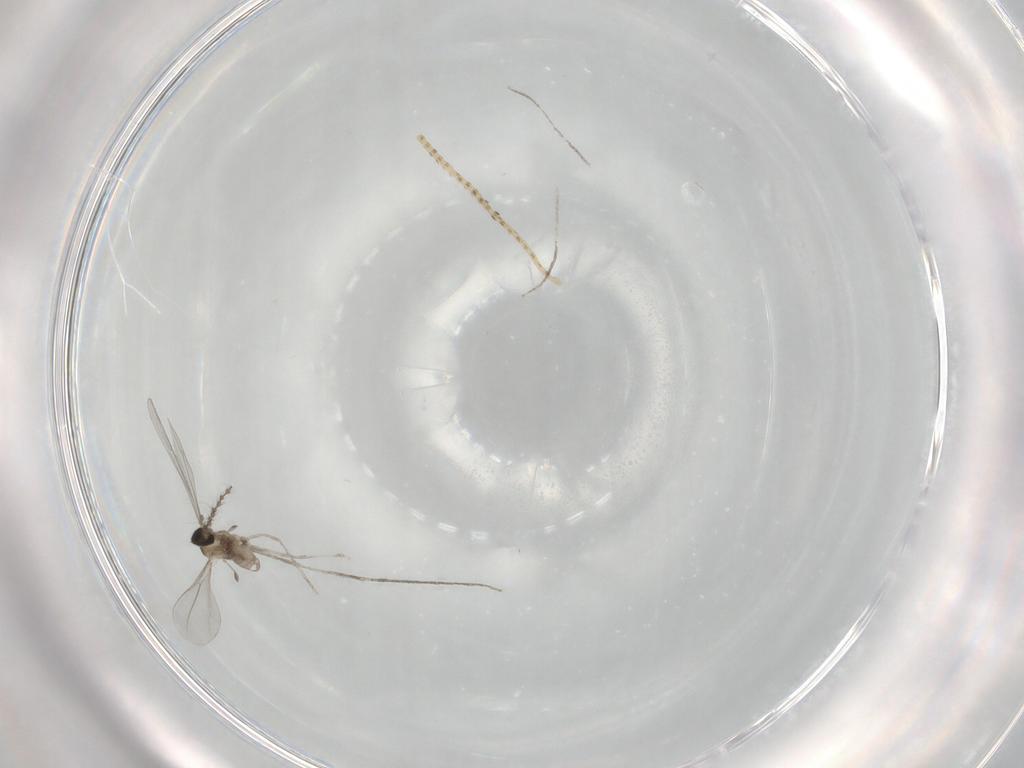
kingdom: Animalia
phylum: Arthropoda
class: Insecta
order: Diptera
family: Cecidomyiidae
